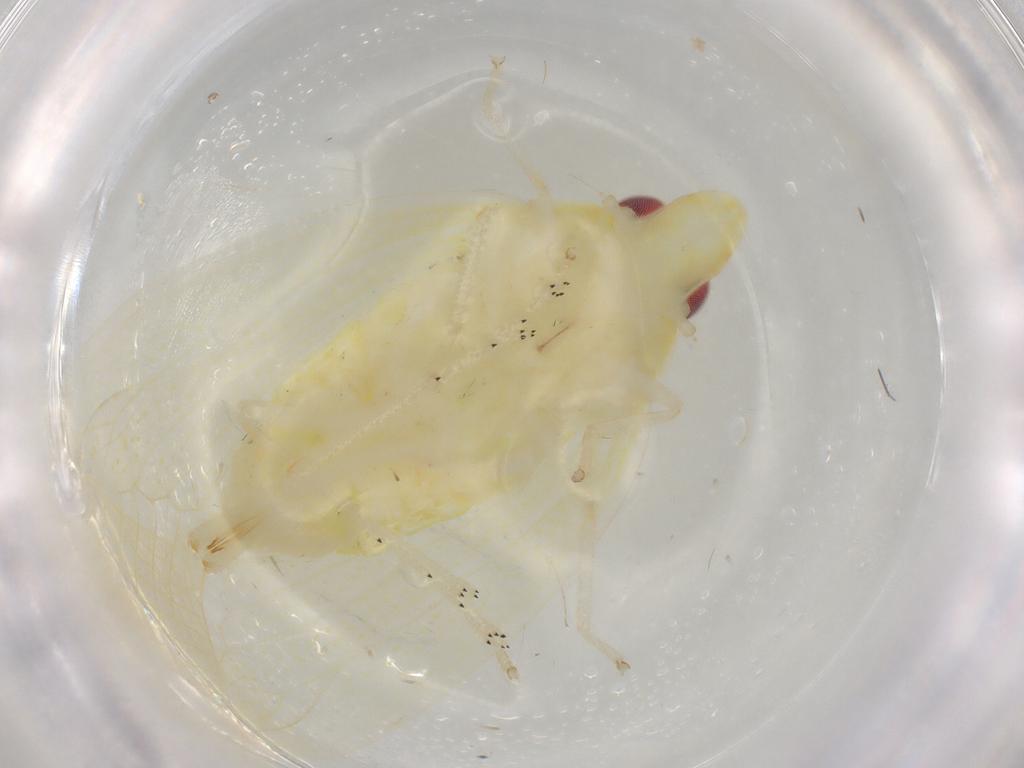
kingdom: Animalia
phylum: Arthropoda
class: Insecta
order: Hemiptera
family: Tropiduchidae
